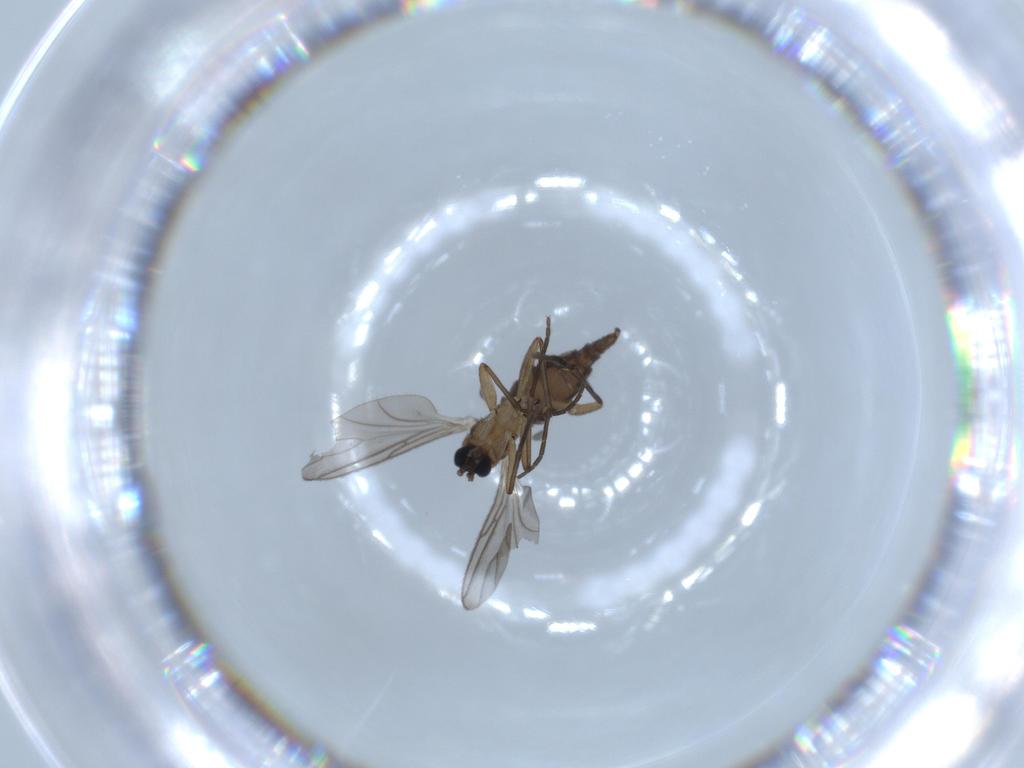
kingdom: Animalia
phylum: Arthropoda
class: Insecta
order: Diptera
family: Sciaridae
